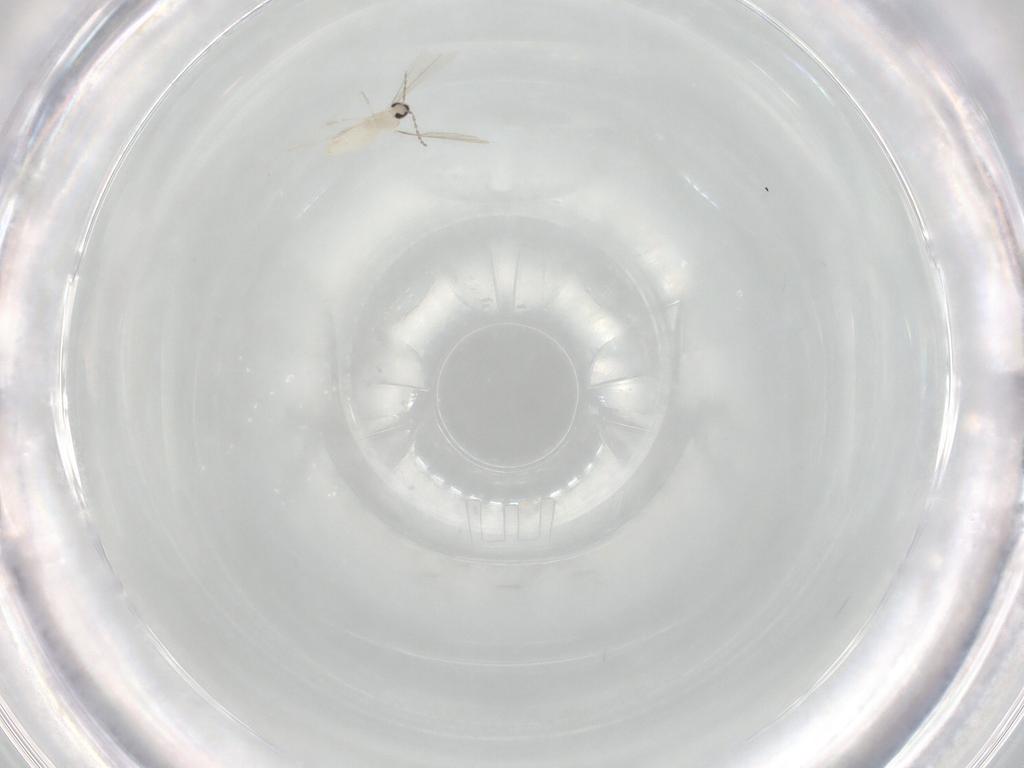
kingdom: Animalia
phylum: Arthropoda
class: Insecta
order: Diptera
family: Cecidomyiidae
